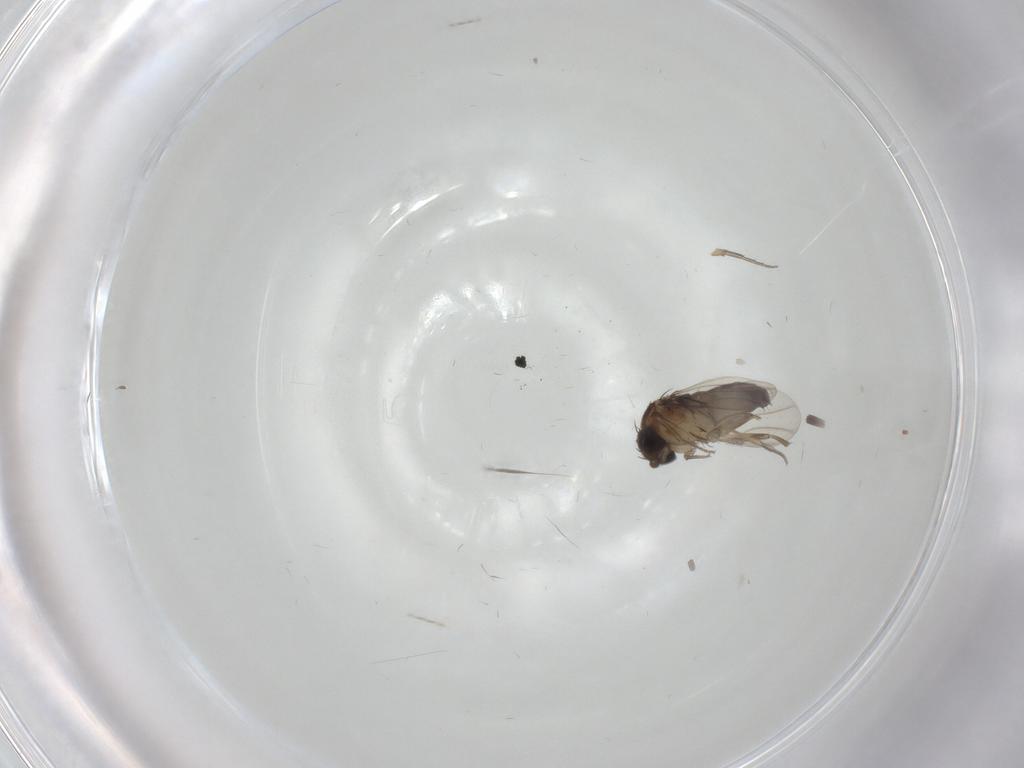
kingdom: Animalia
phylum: Arthropoda
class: Insecta
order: Diptera
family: Phoridae
